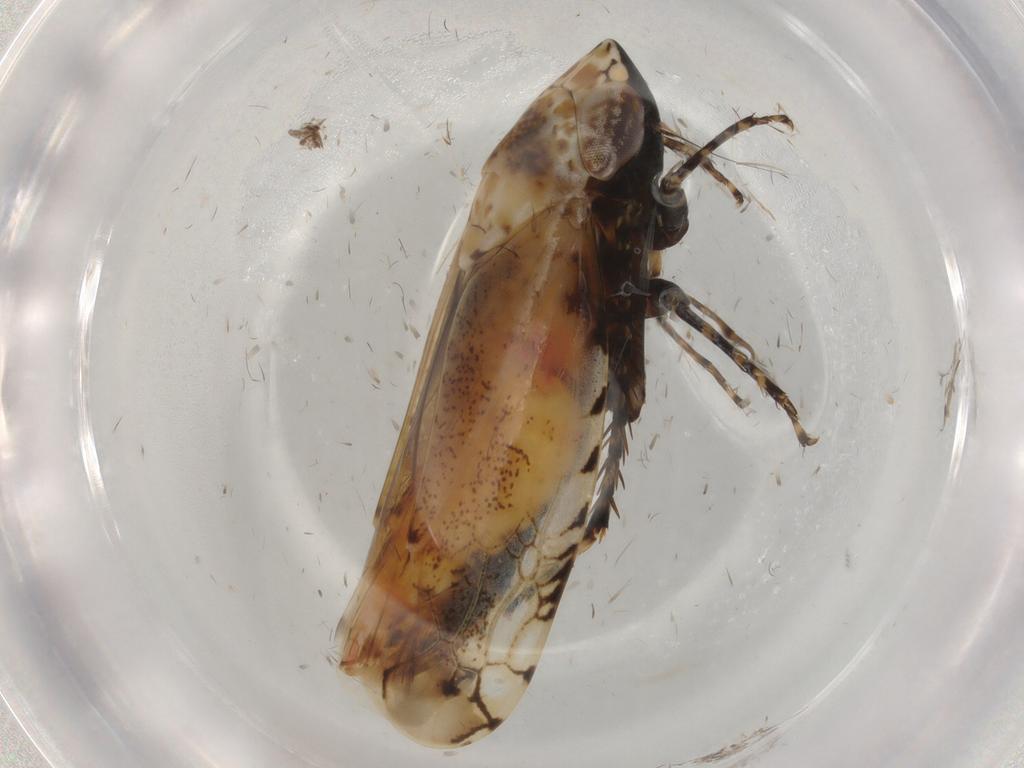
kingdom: Animalia
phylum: Arthropoda
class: Insecta
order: Hemiptera
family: Cicadellidae
